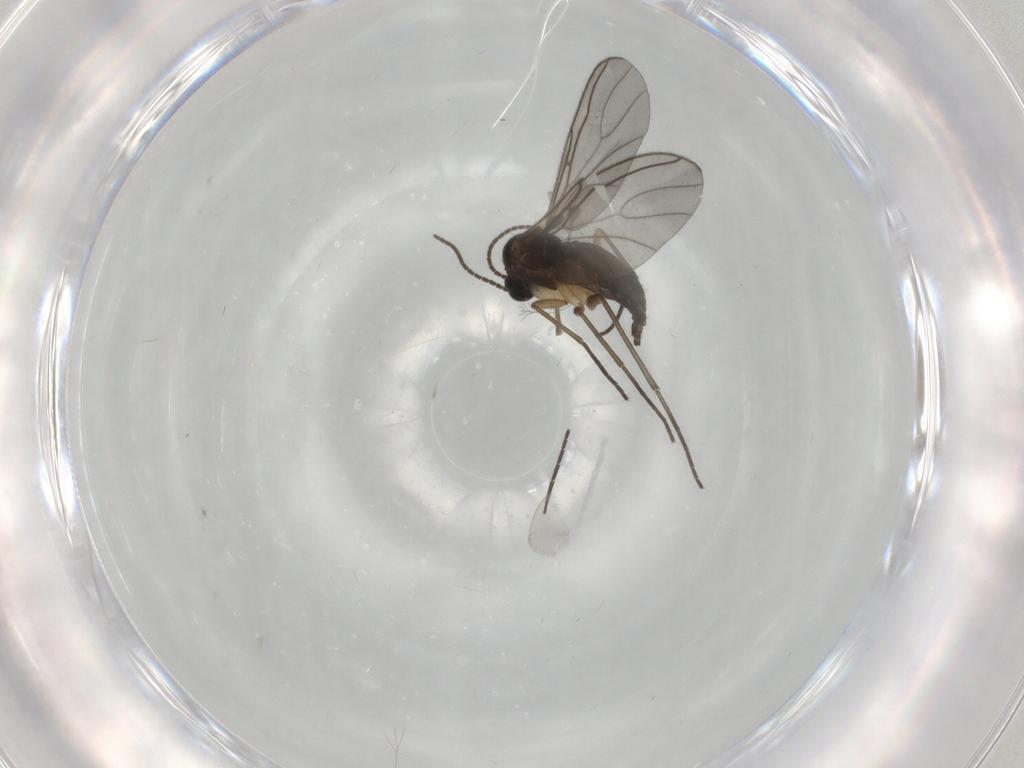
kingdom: Animalia
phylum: Arthropoda
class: Insecta
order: Diptera
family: Sciaridae
